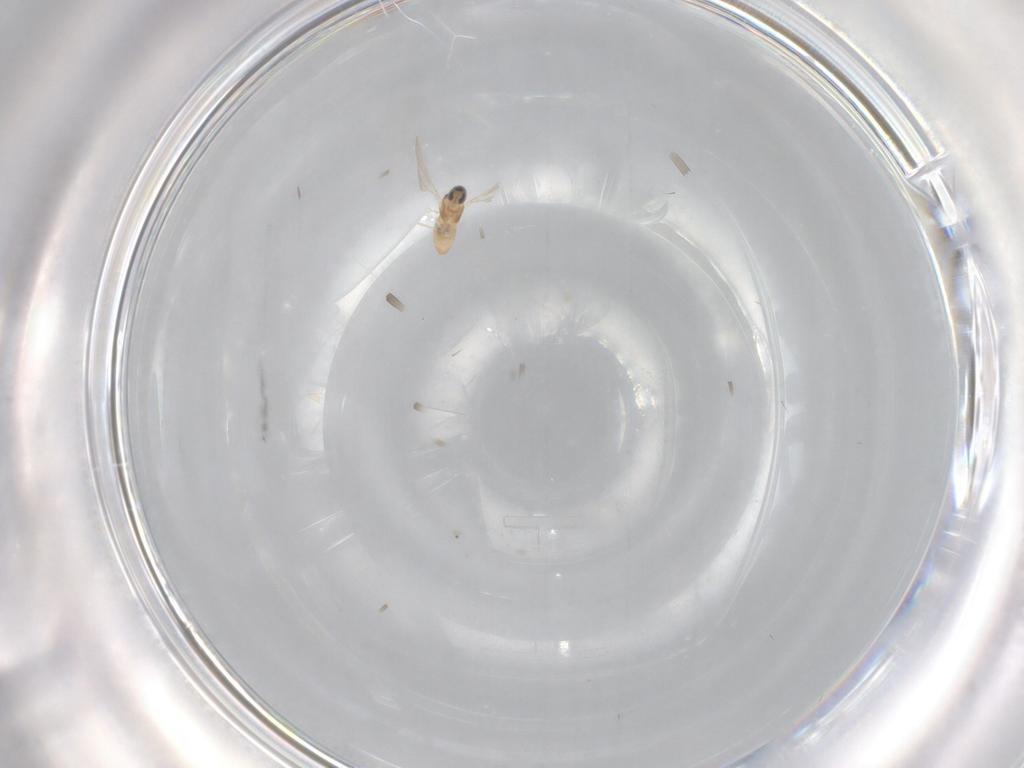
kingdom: Animalia
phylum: Arthropoda
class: Insecta
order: Diptera
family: Cecidomyiidae
